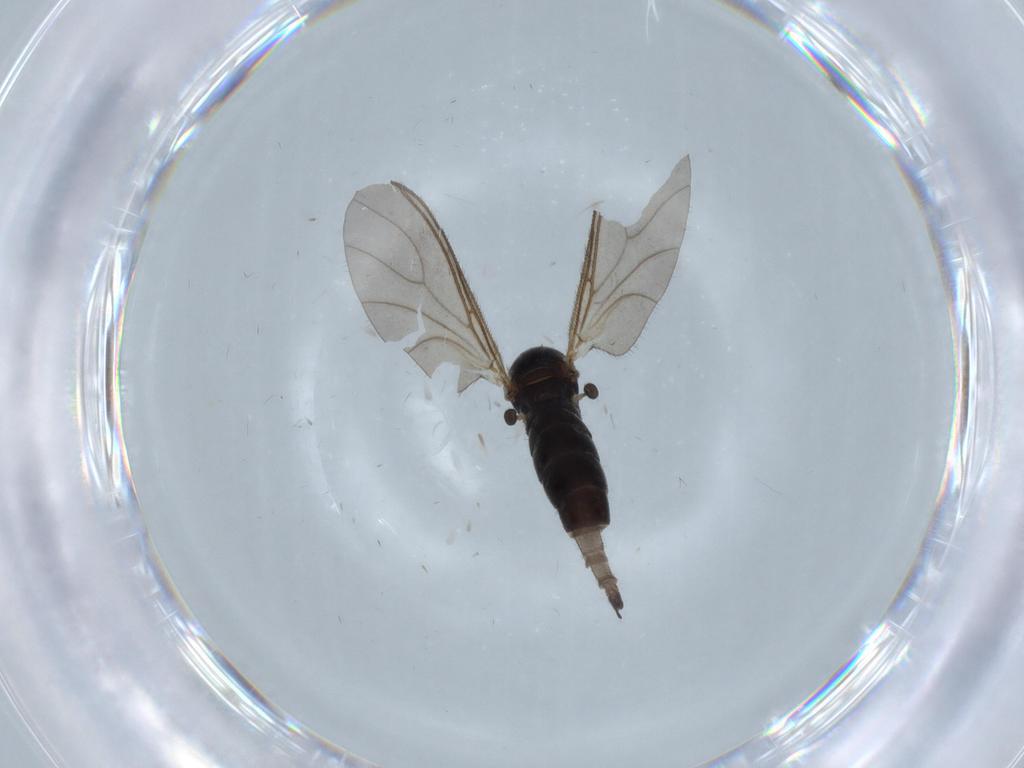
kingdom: Animalia
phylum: Arthropoda
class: Insecta
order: Diptera
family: Sciaridae
